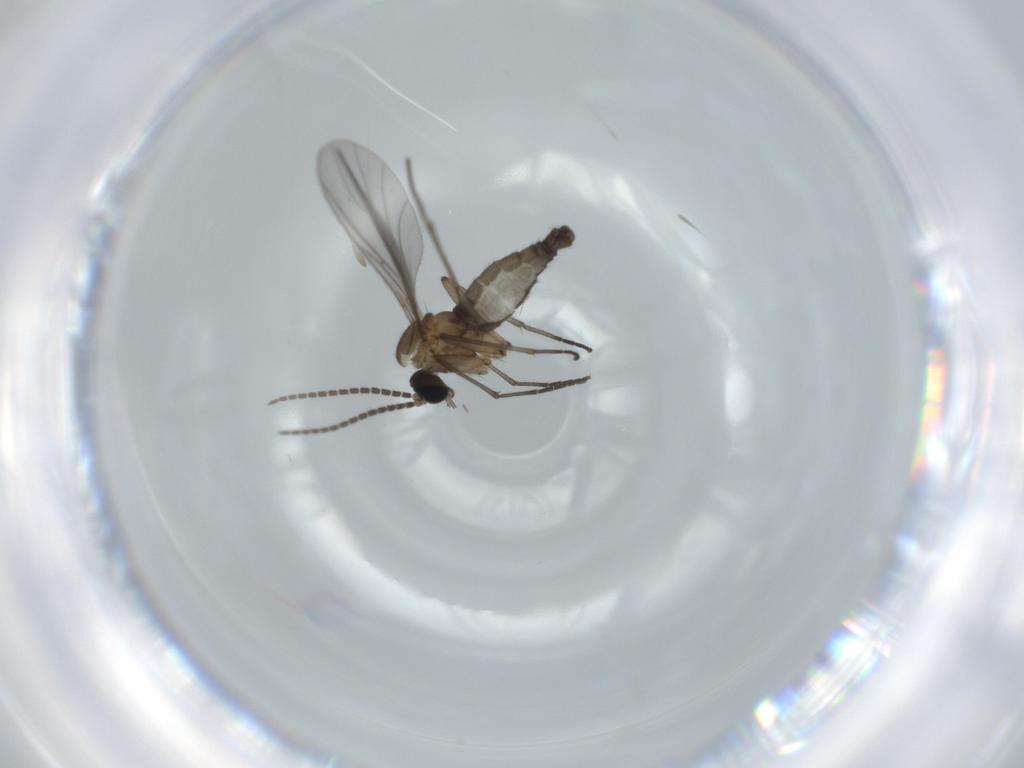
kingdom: Animalia
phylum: Arthropoda
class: Insecta
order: Diptera
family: Sciaridae
